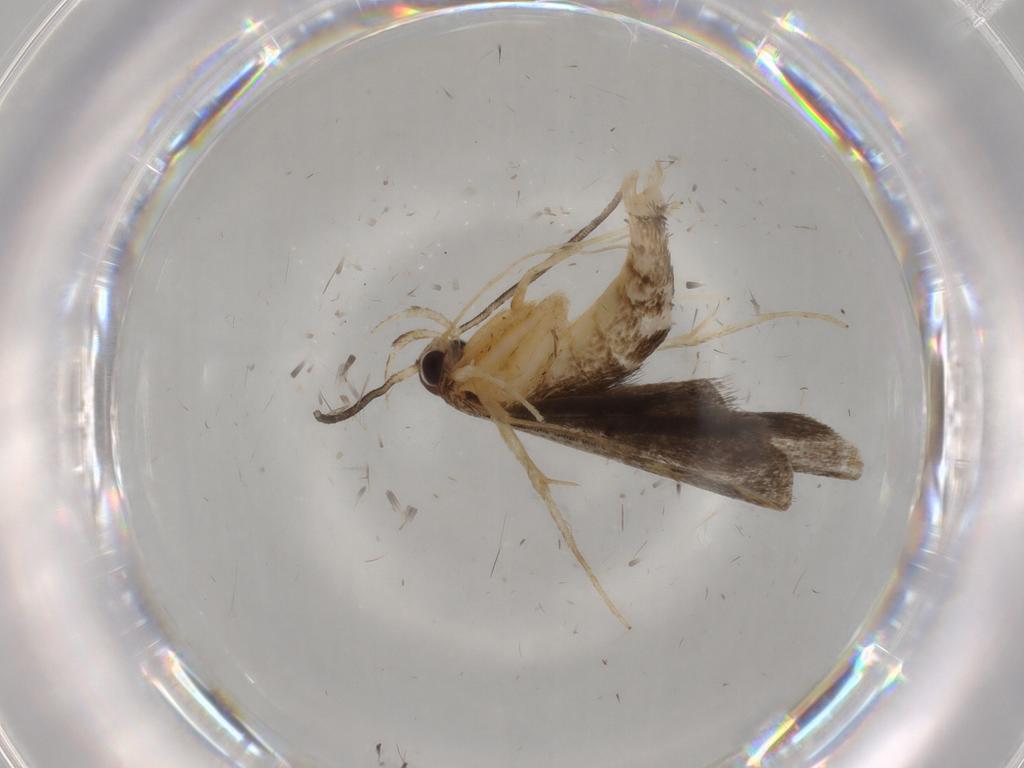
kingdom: Animalia
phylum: Arthropoda
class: Insecta
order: Lepidoptera
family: Cosmopterigidae
